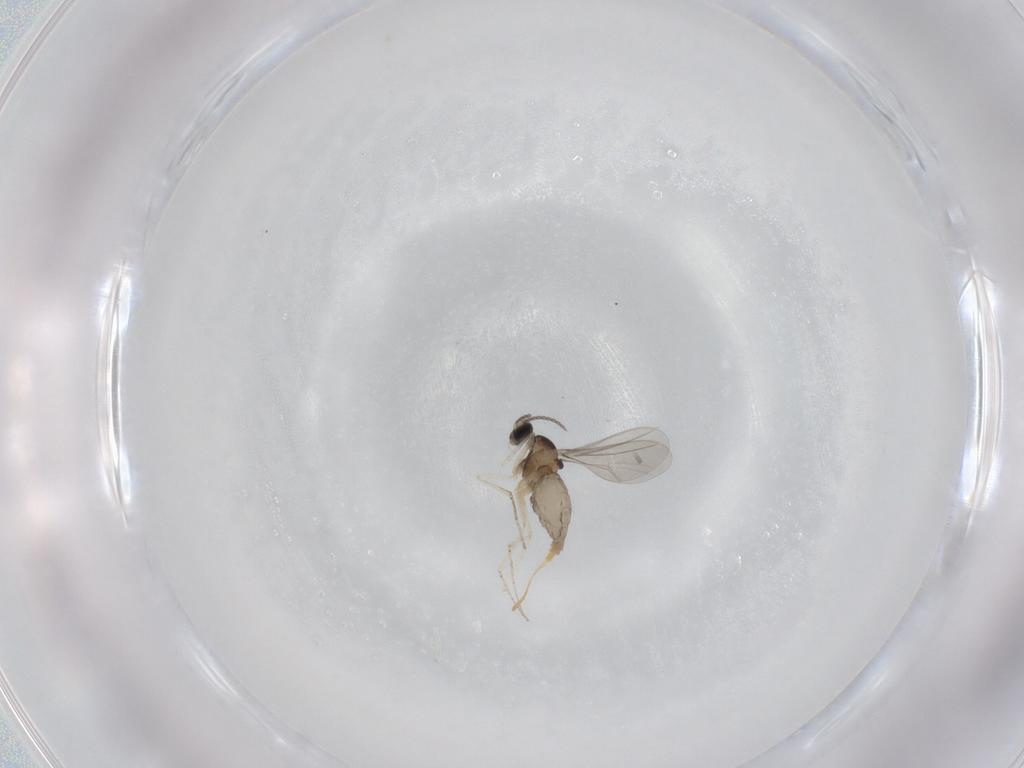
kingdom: Animalia
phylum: Arthropoda
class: Insecta
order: Diptera
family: Cecidomyiidae
